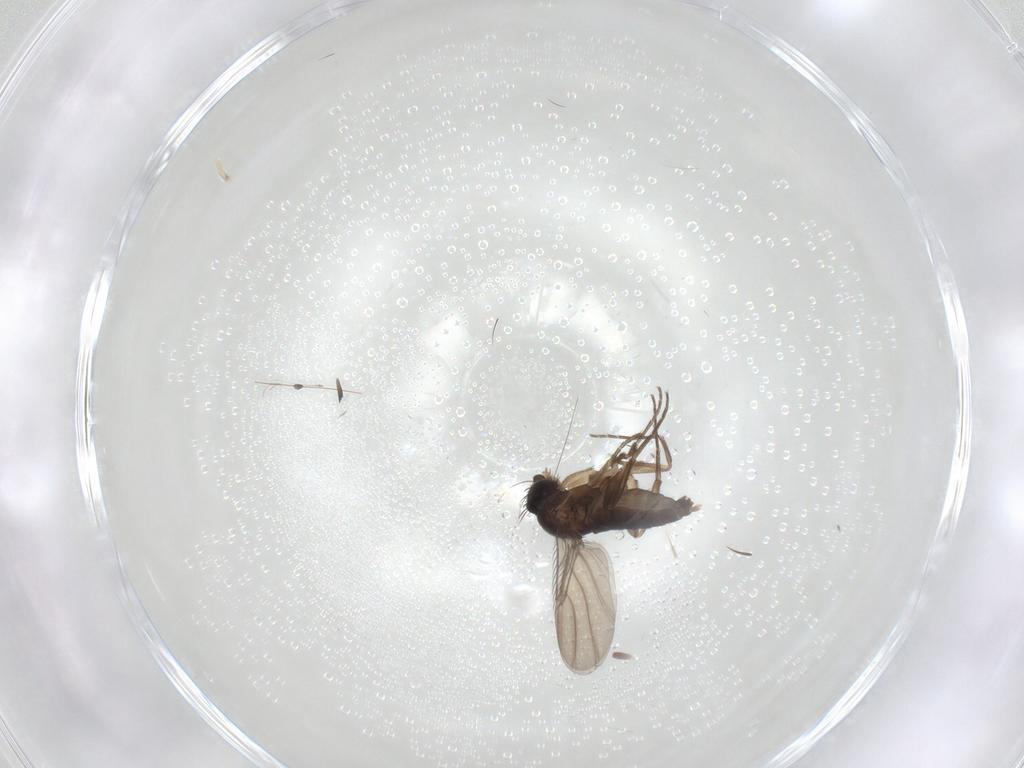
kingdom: Animalia
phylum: Arthropoda
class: Insecta
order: Diptera
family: Phoridae
